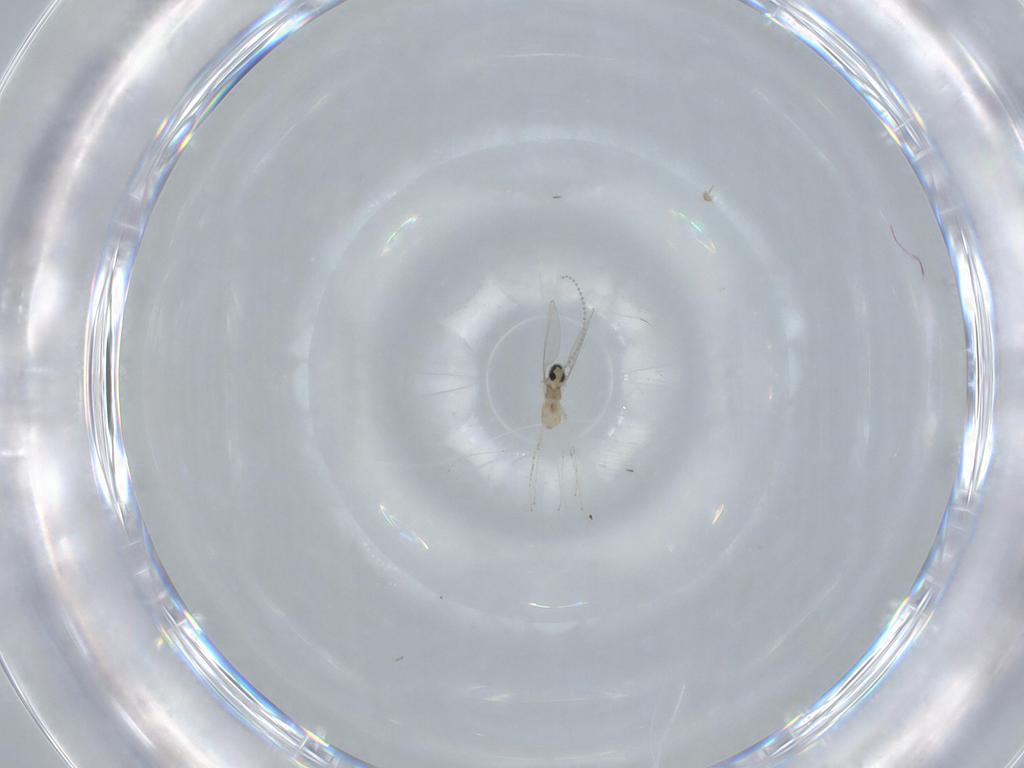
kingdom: Animalia
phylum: Arthropoda
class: Insecta
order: Diptera
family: Cecidomyiidae
